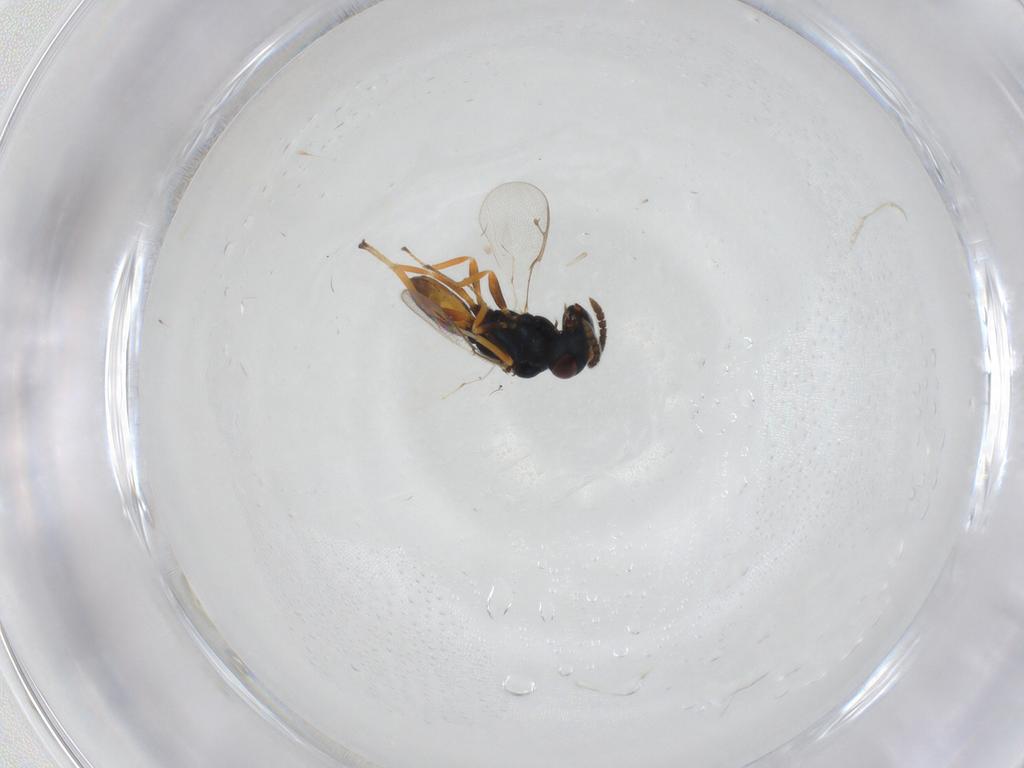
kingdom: Animalia
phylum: Arthropoda
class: Insecta
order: Hymenoptera
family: Pteromalidae
